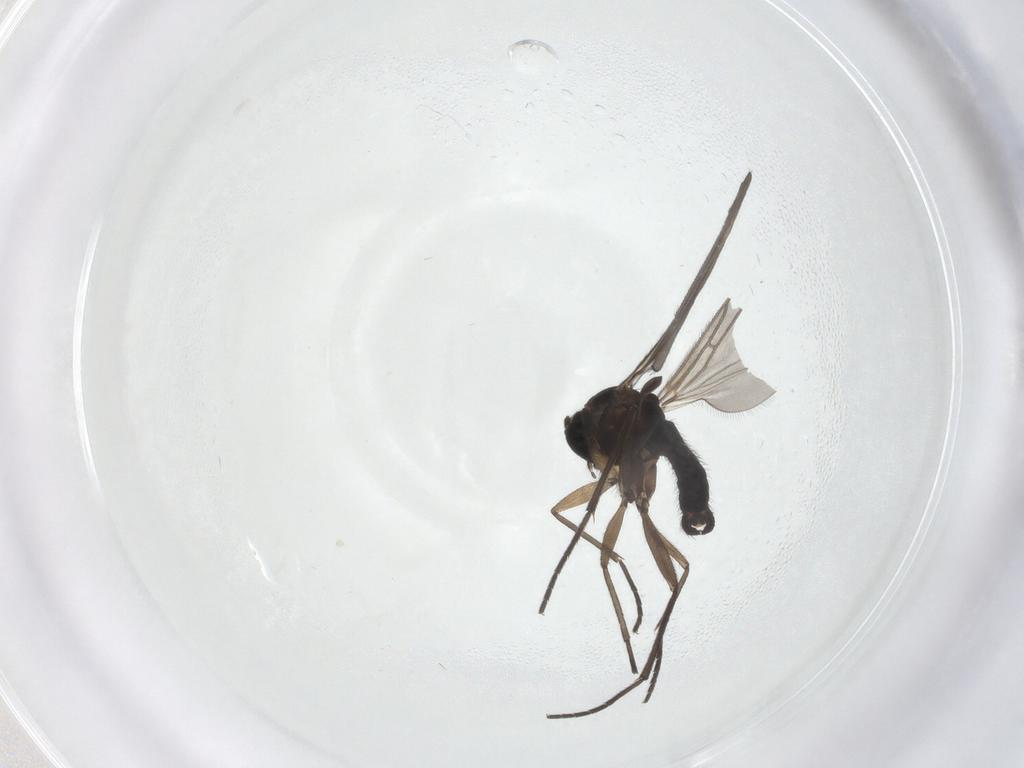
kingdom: Animalia
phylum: Arthropoda
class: Insecta
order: Diptera
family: Sciaridae
